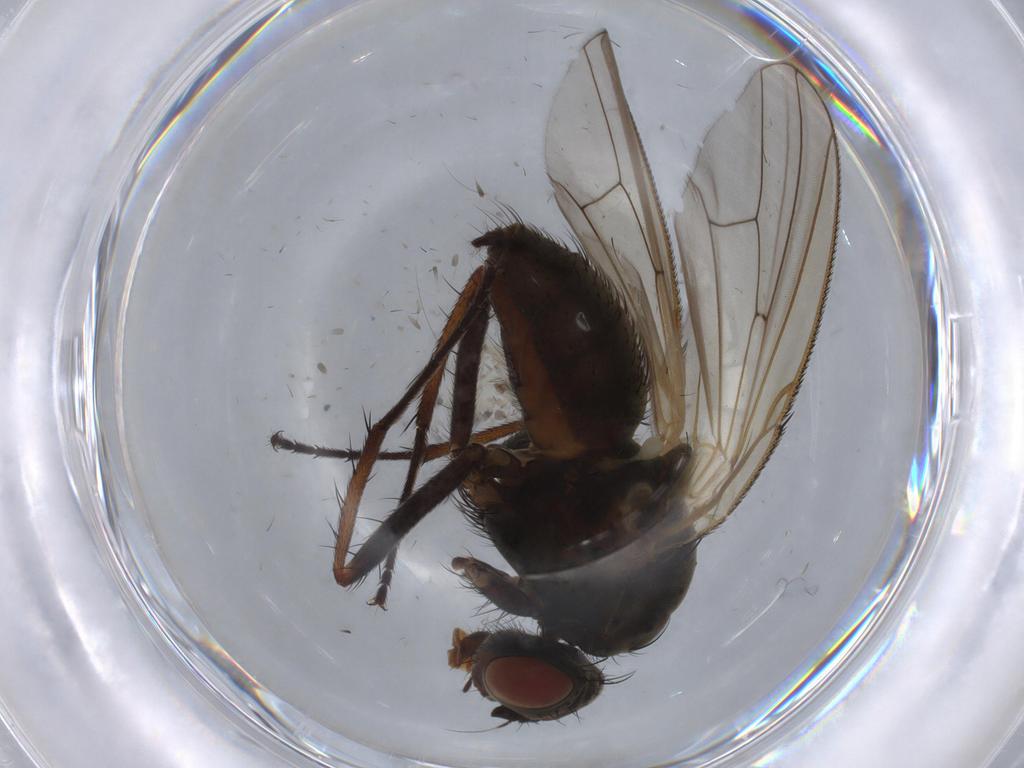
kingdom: Animalia
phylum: Arthropoda
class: Insecta
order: Diptera
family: Anthomyiidae
